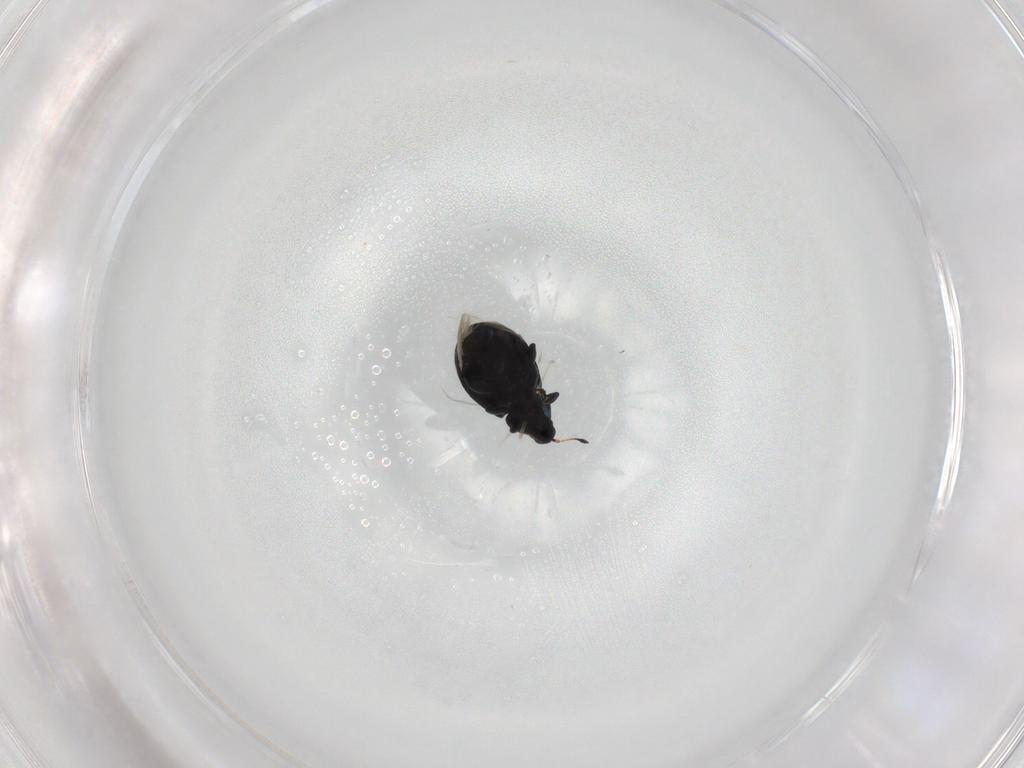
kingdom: Animalia
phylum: Arthropoda
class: Insecta
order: Coleoptera
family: Curculionidae
